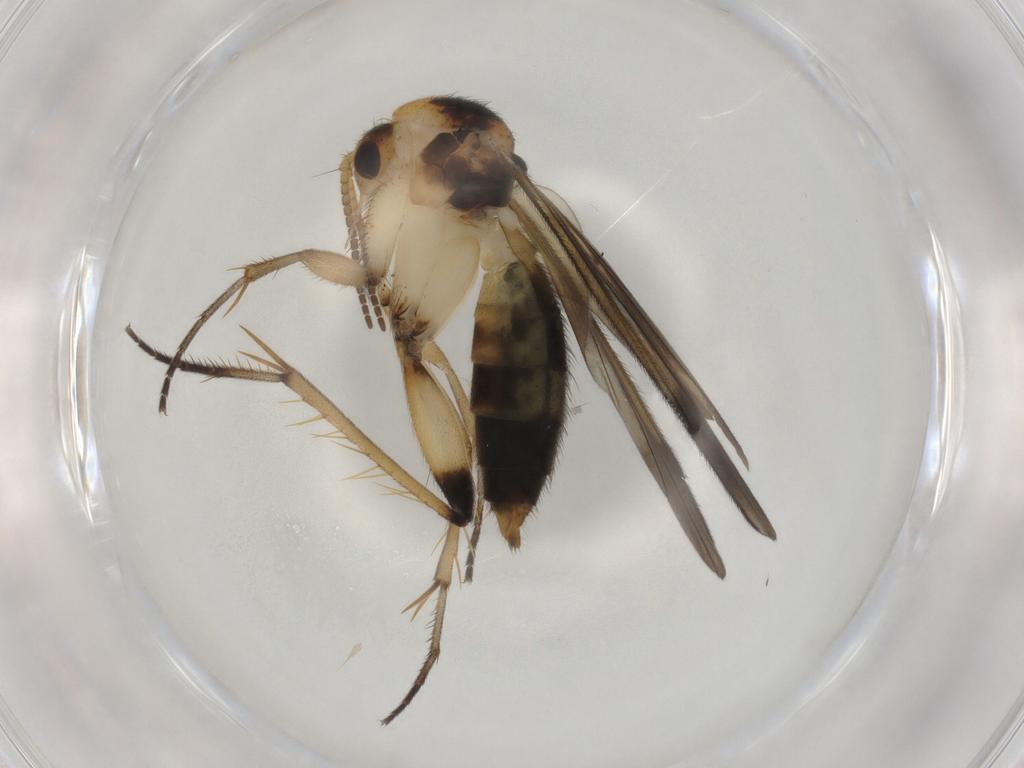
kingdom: Animalia
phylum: Arthropoda
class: Insecta
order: Diptera
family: Mycetophilidae
